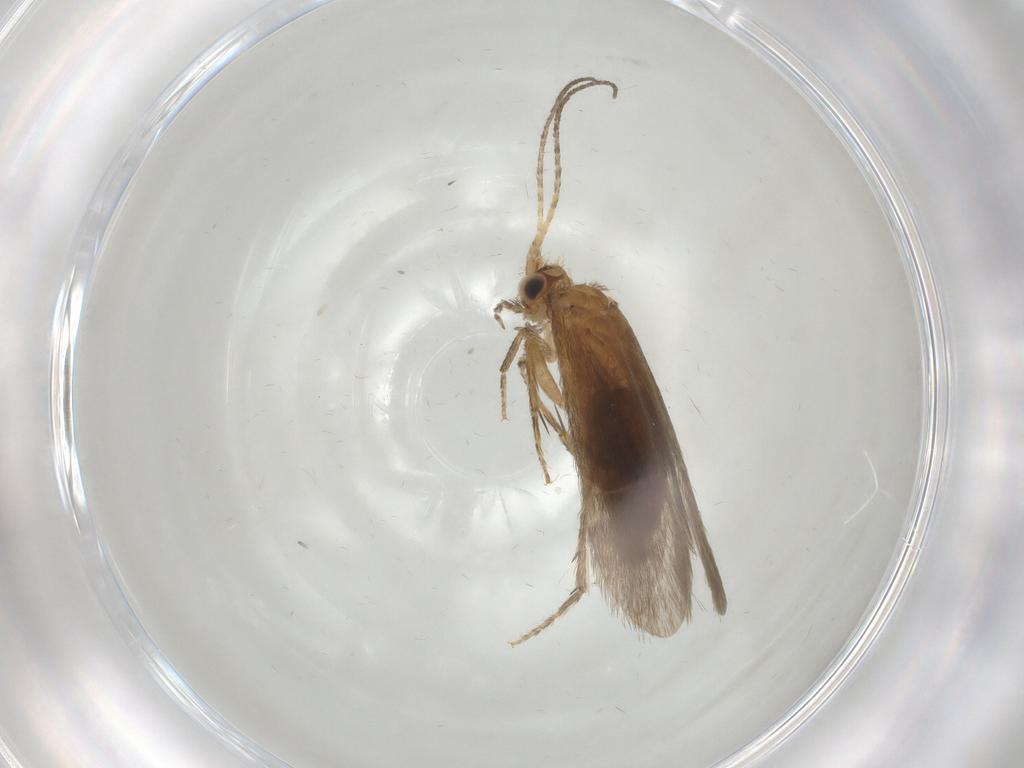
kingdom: Animalia
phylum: Arthropoda
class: Insecta
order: Trichoptera
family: Glossosomatidae
